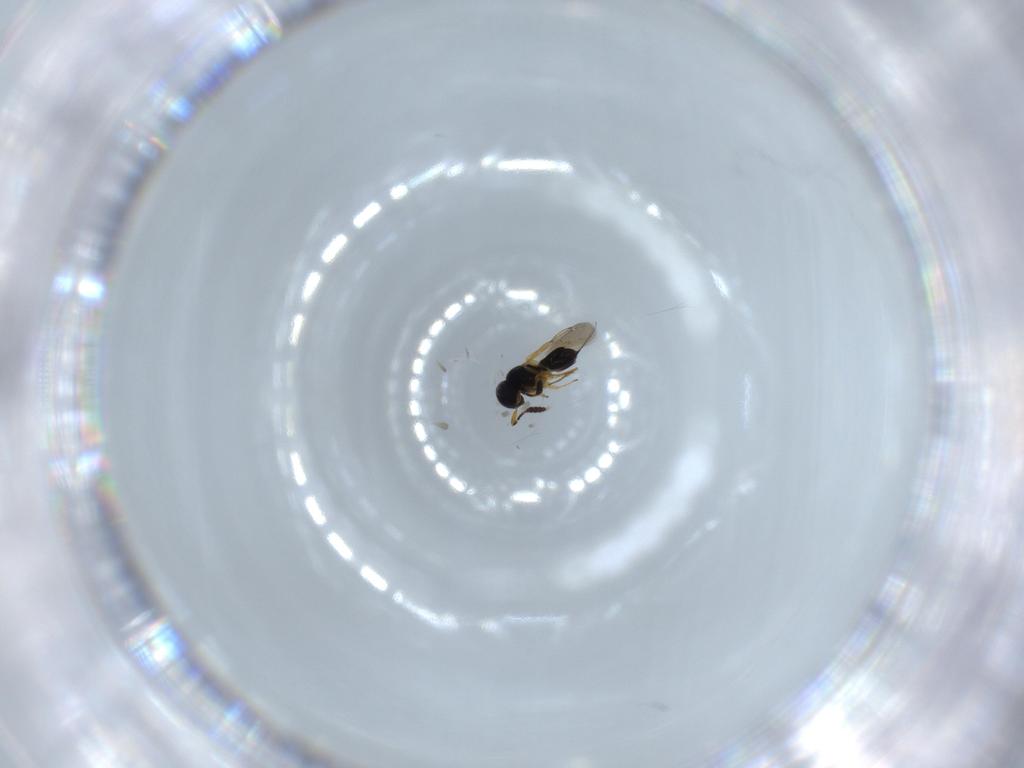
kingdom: Animalia
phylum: Arthropoda
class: Insecta
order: Hymenoptera
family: Scelionidae
